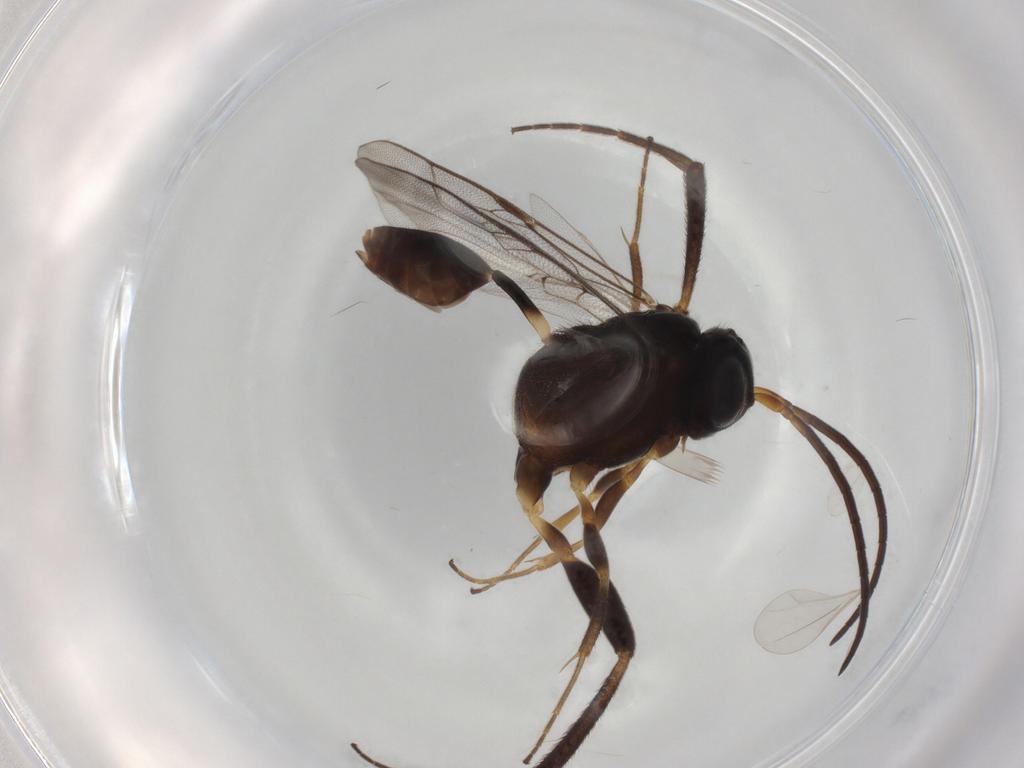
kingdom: Animalia
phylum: Arthropoda
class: Insecta
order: Hymenoptera
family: Evaniidae
